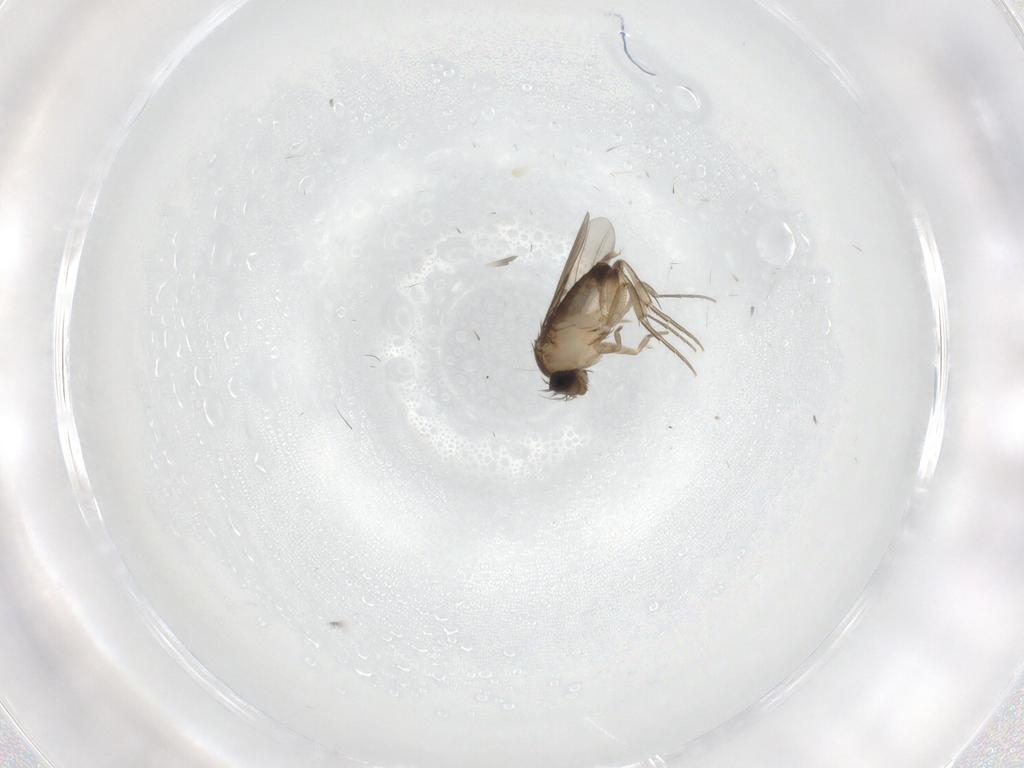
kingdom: Animalia
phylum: Arthropoda
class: Insecta
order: Diptera
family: Phoridae
